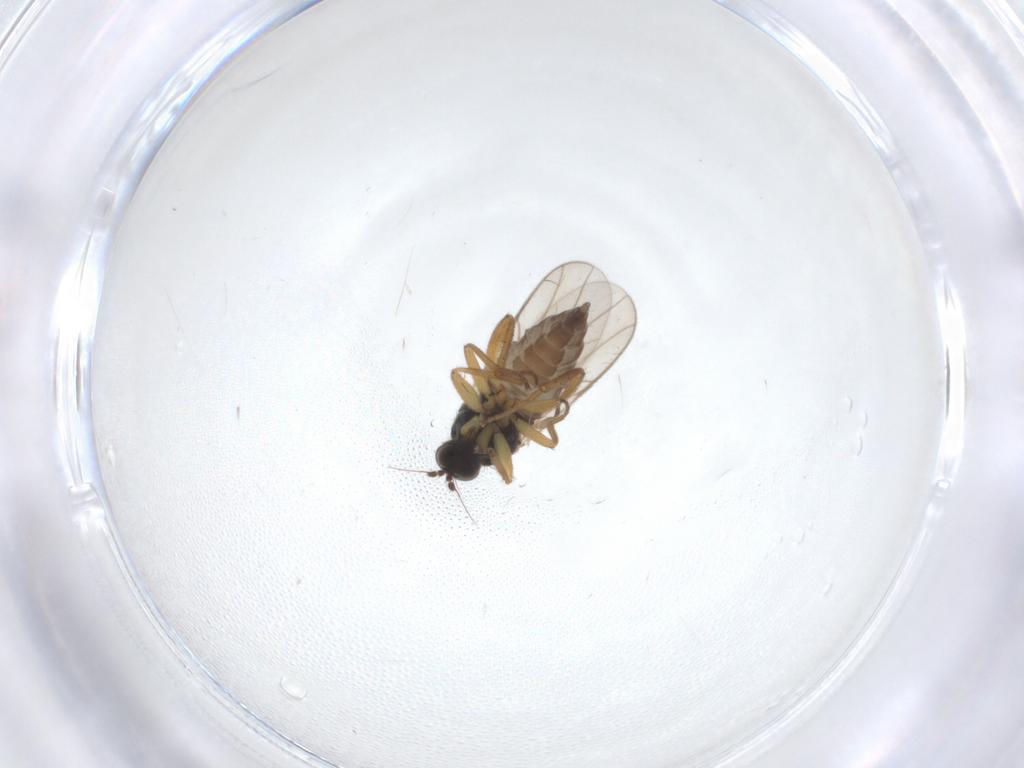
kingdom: Animalia
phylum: Arthropoda
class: Insecta
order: Diptera
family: Hybotidae
